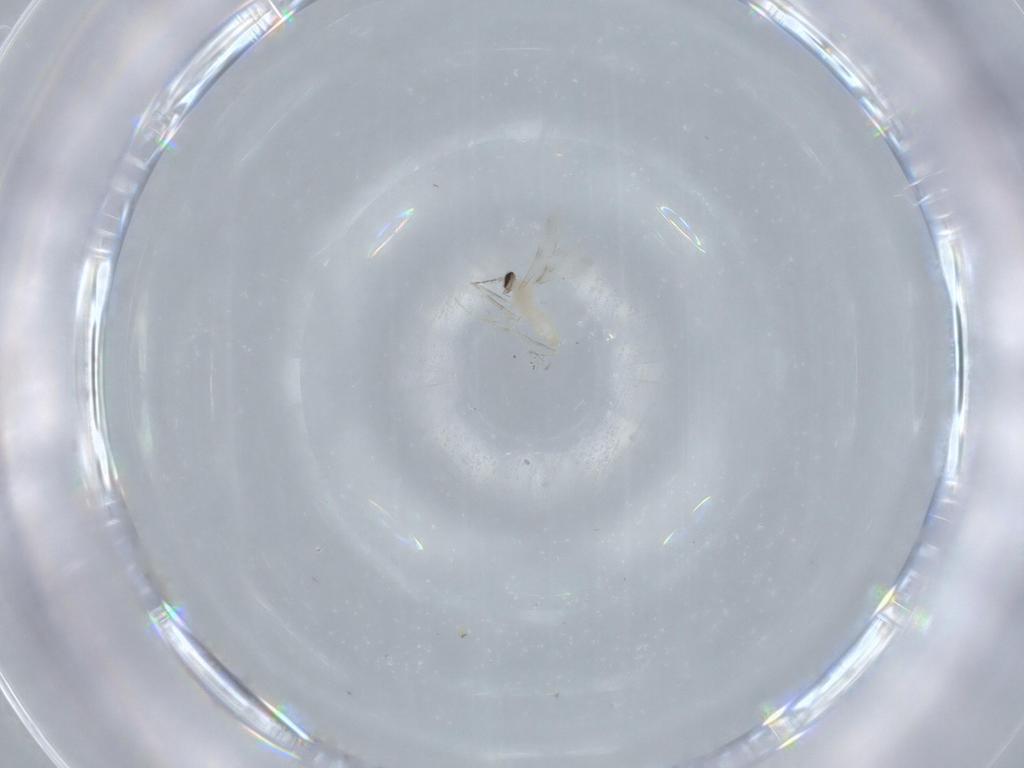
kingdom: Animalia
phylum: Arthropoda
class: Insecta
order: Diptera
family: Cecidomyiidae
